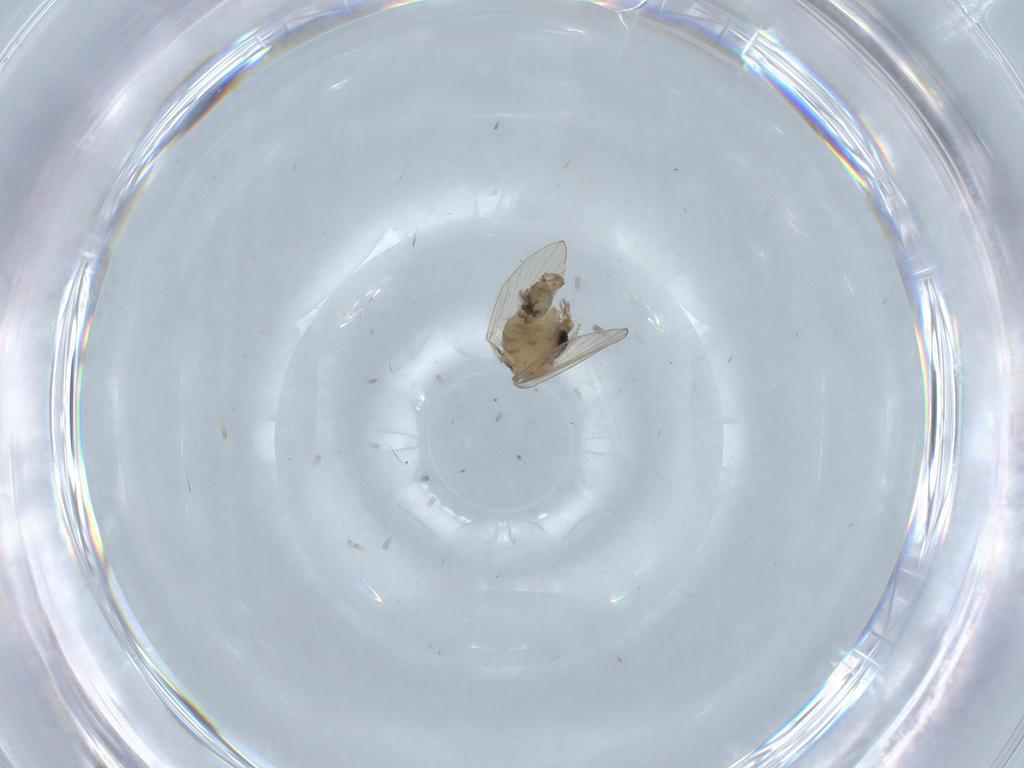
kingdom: Animalia
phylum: Arthropoda
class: Insecta
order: Diptera
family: Psychodidae
